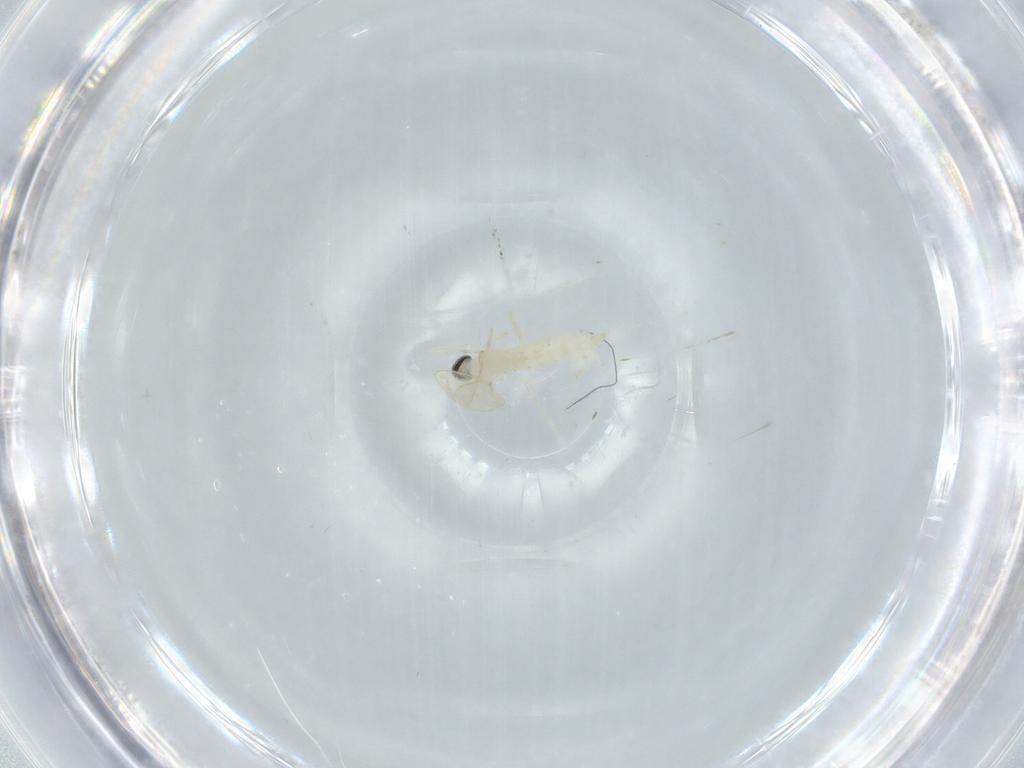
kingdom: Animalia
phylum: Arthropoda
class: Insecta
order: Diptera
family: Cecidomyiidae
